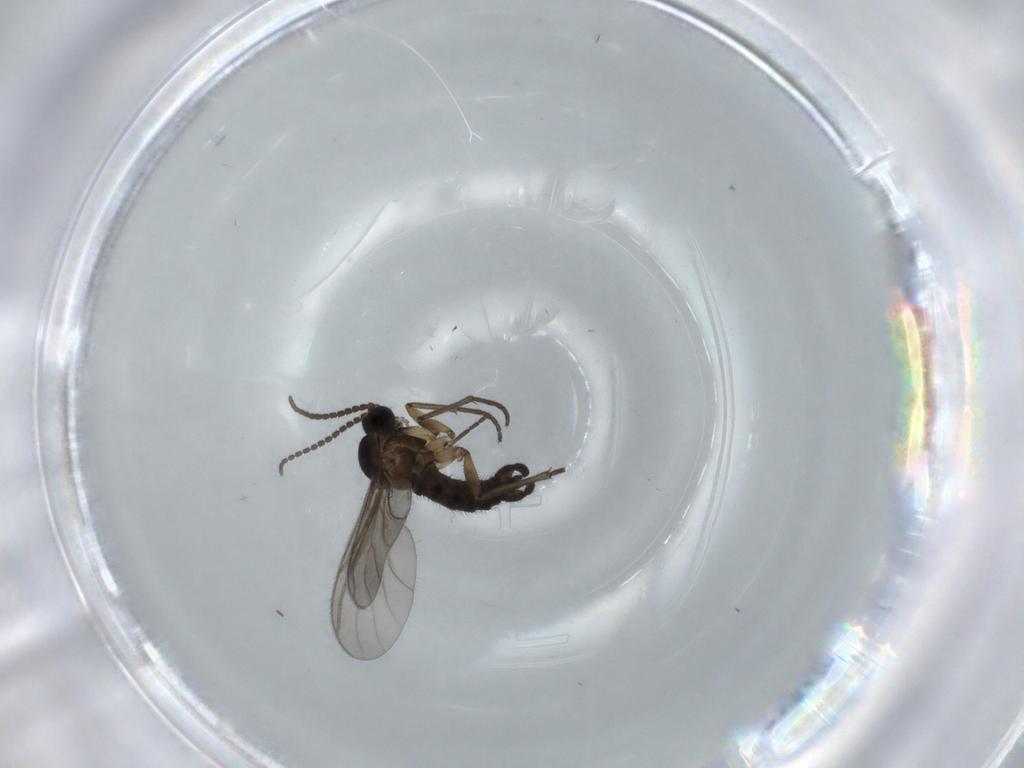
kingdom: Animalia
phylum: Arthropoda
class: Insecta
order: Diptera
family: Sciaridae
